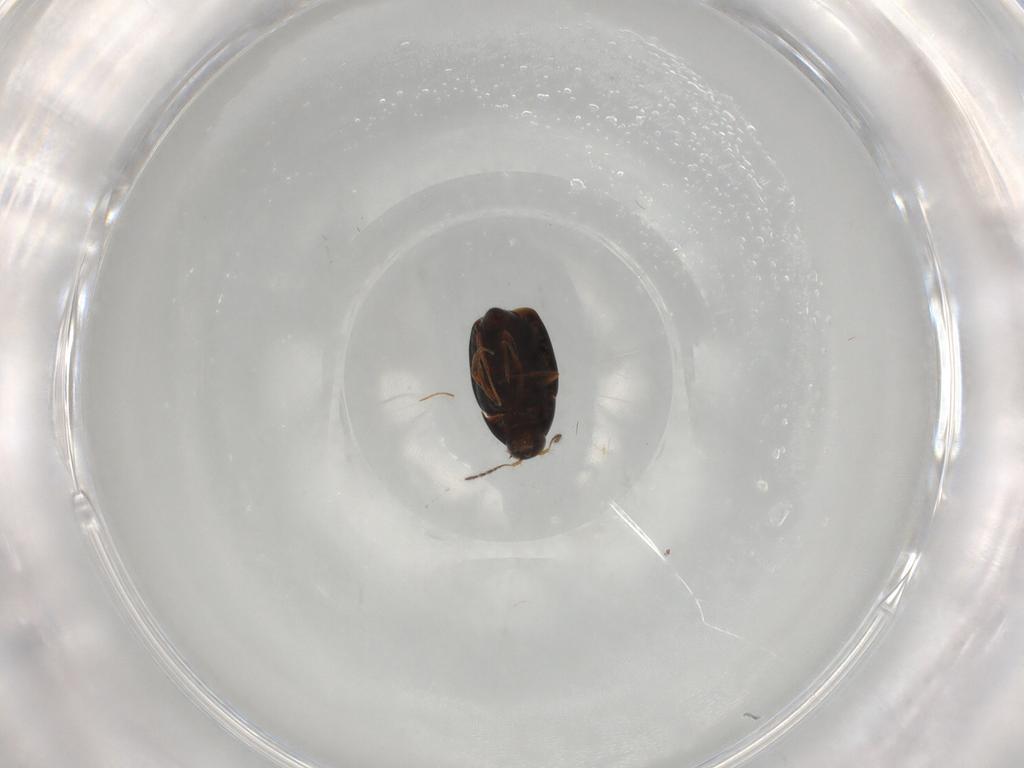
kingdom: Animalia
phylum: Arthropoda
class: Insecta
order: Coleoptera
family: Staphylinidae
